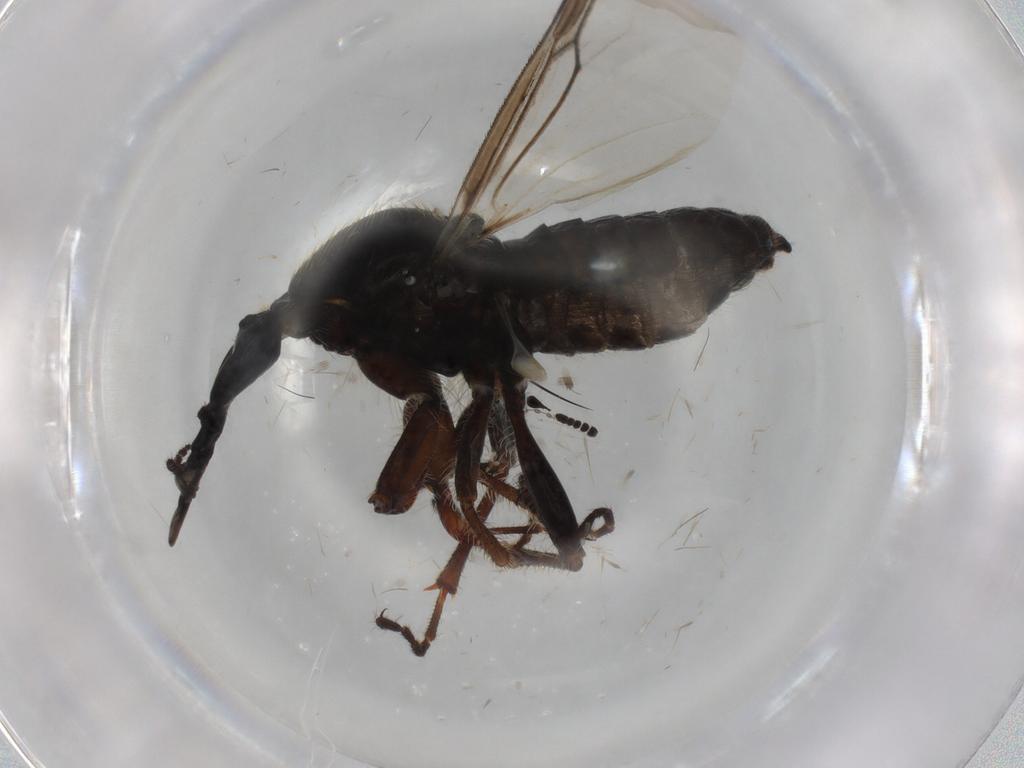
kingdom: Animalia
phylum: Arthropoda
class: Insecta
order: Diptera
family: Bibionidae
